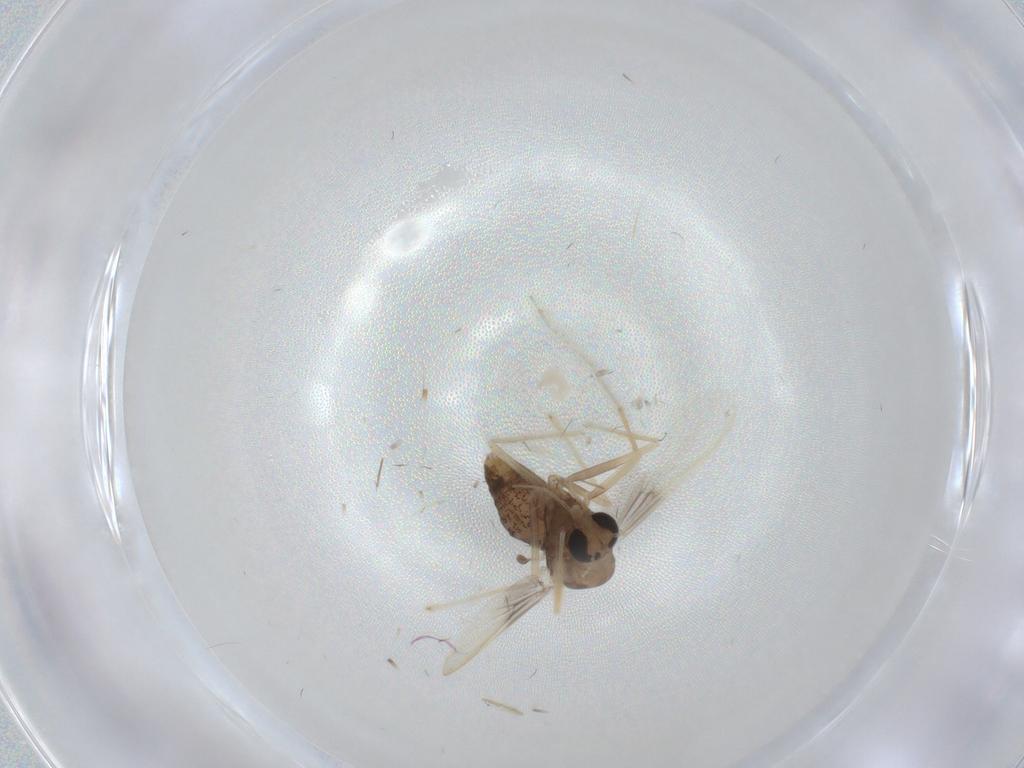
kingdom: Animalia
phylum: Arthropoda
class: Insecta
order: Diptera
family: Chironomidae
